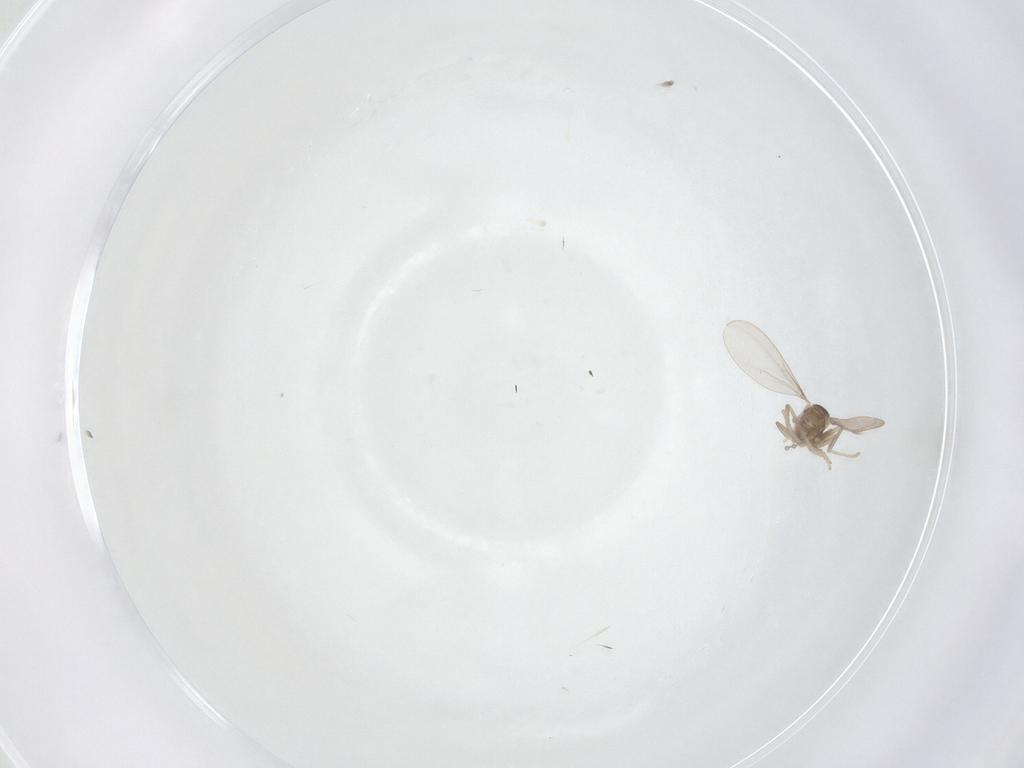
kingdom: Animalia
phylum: Arthropoda
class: Insecta
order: Diptera
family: Cecidomyiidae
